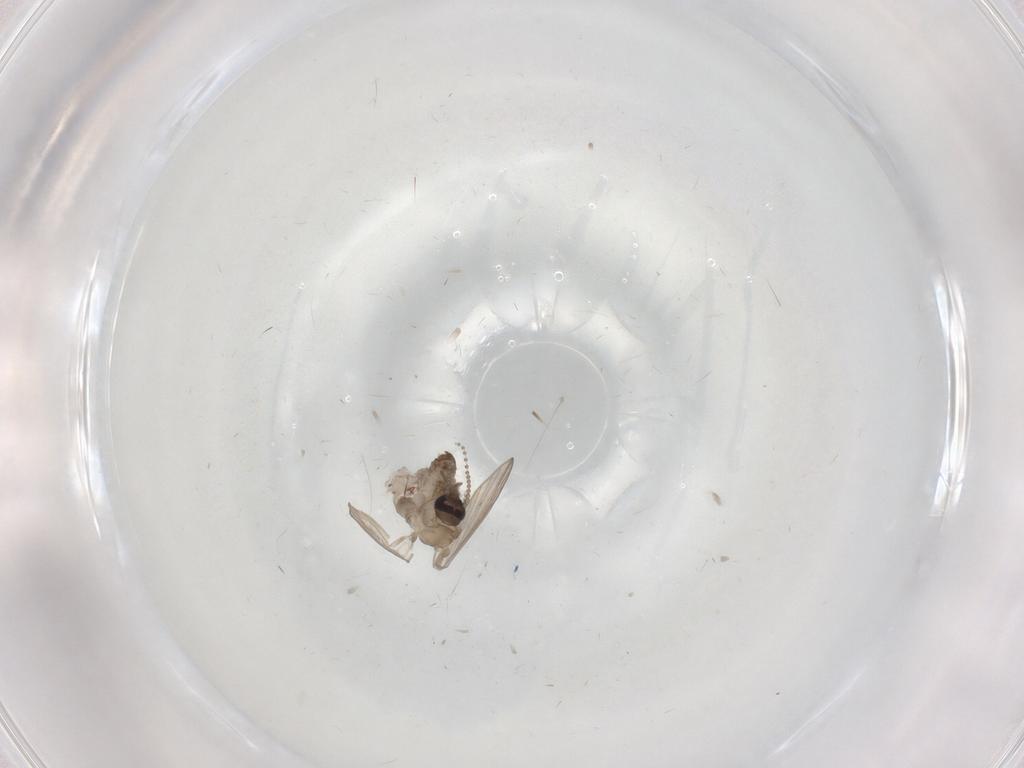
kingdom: Animalia
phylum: Arthropoda
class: Insecta
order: Diptera
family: Psychodidae
